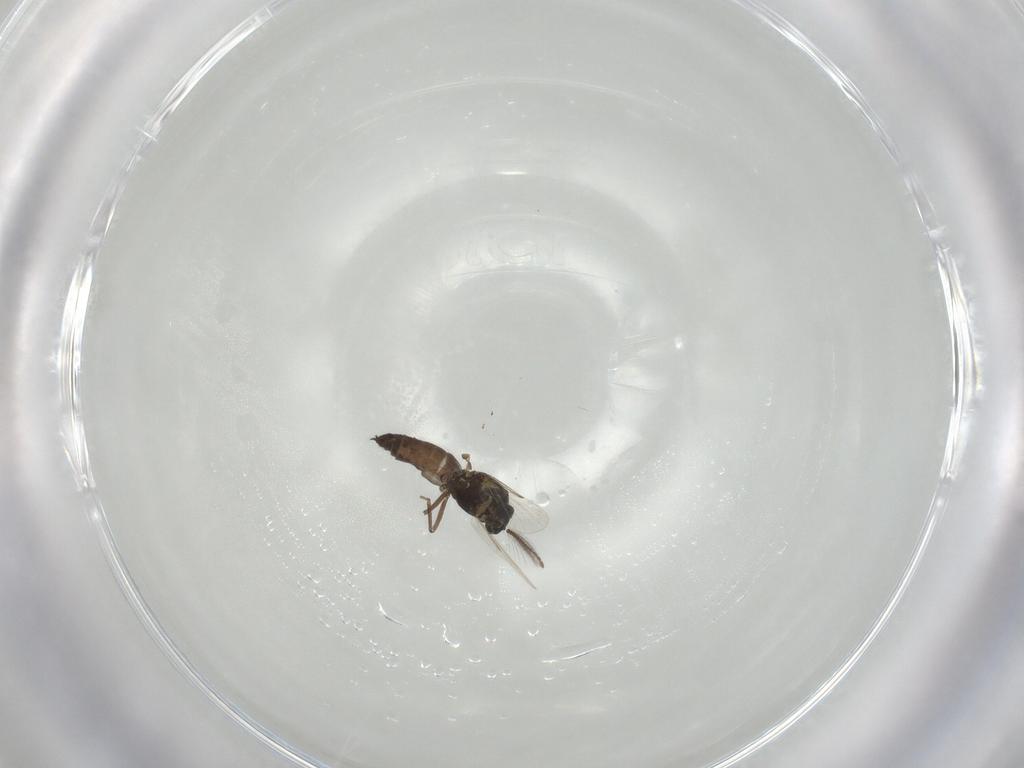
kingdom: Animalia
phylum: Arthropoda
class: Insecta
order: Diptera
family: Ceratopogonidae
